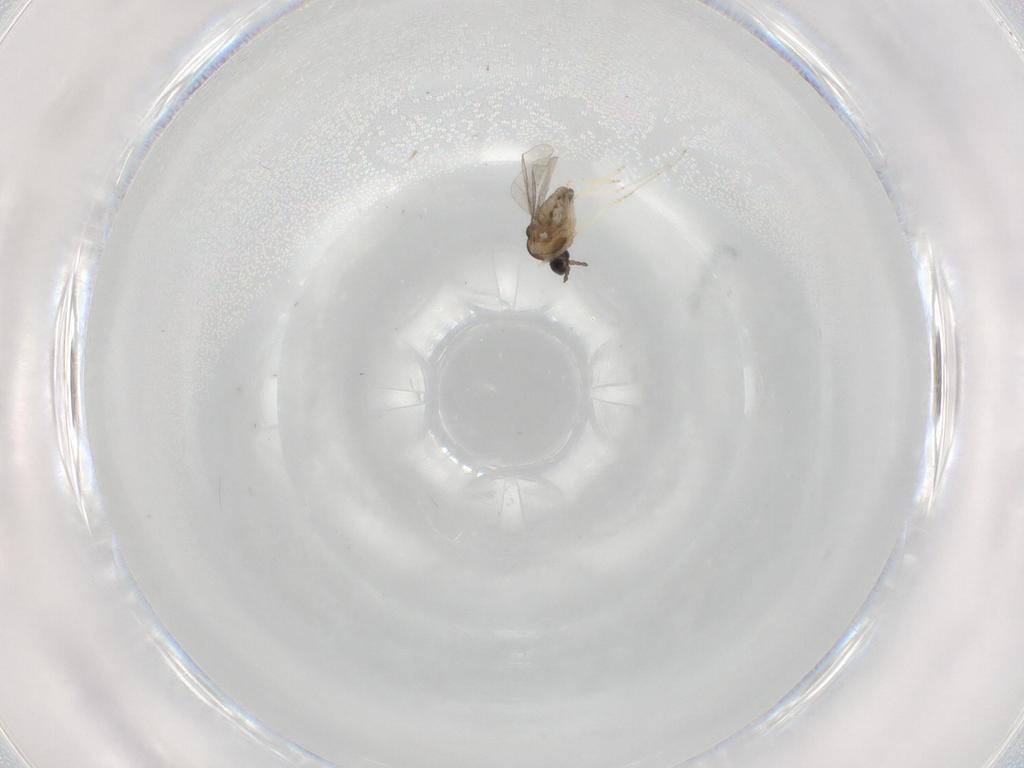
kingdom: Animalia
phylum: Arthropoda
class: Insecta
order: Diptera
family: Cecidomyiidae
